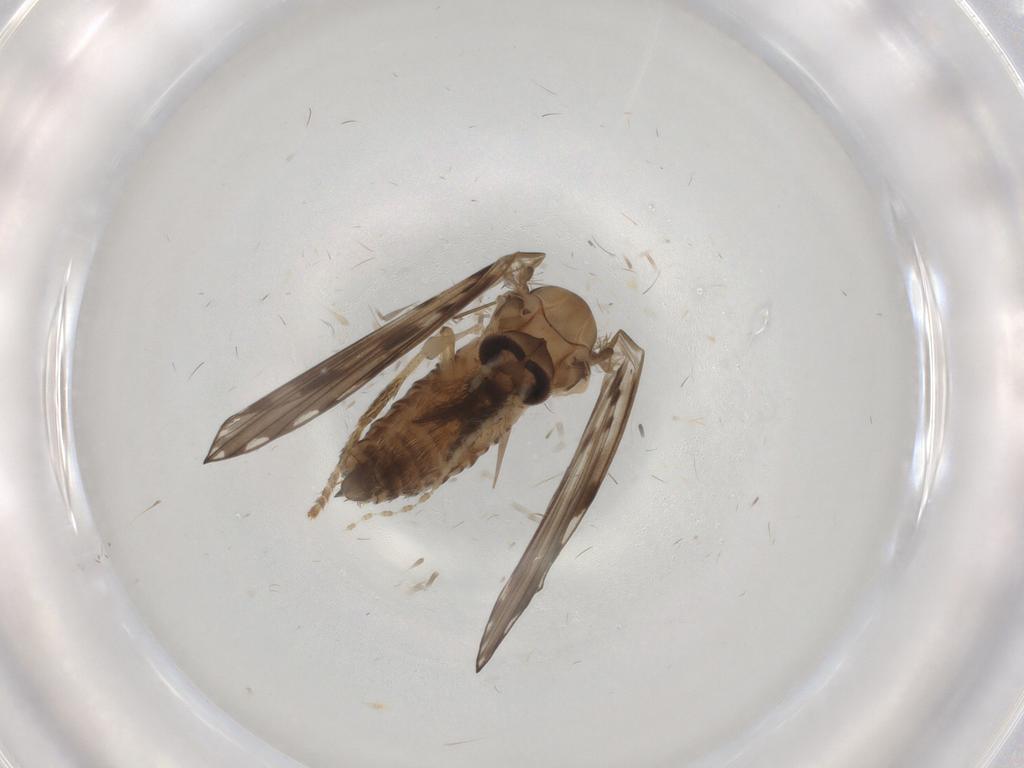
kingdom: Animalia
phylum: Arthropoda
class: Insecta
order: Diptera
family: Psychodidae
